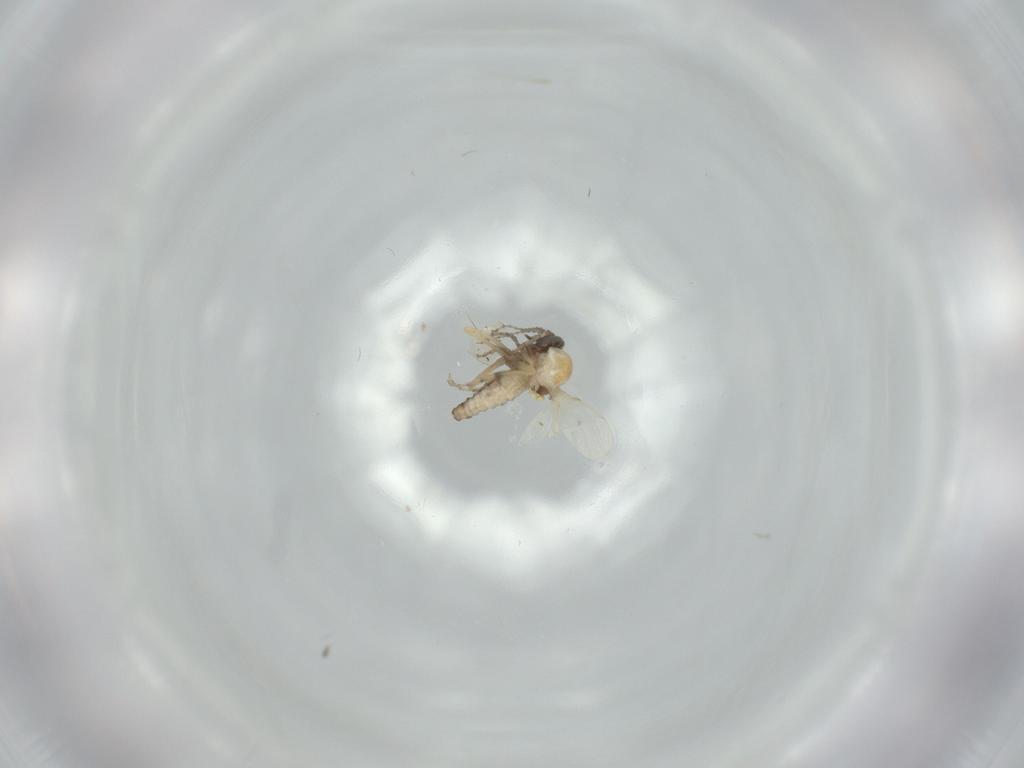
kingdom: Animalia
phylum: Arthropoda
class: Insecta
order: Diptera
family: Ceratopogonidae
